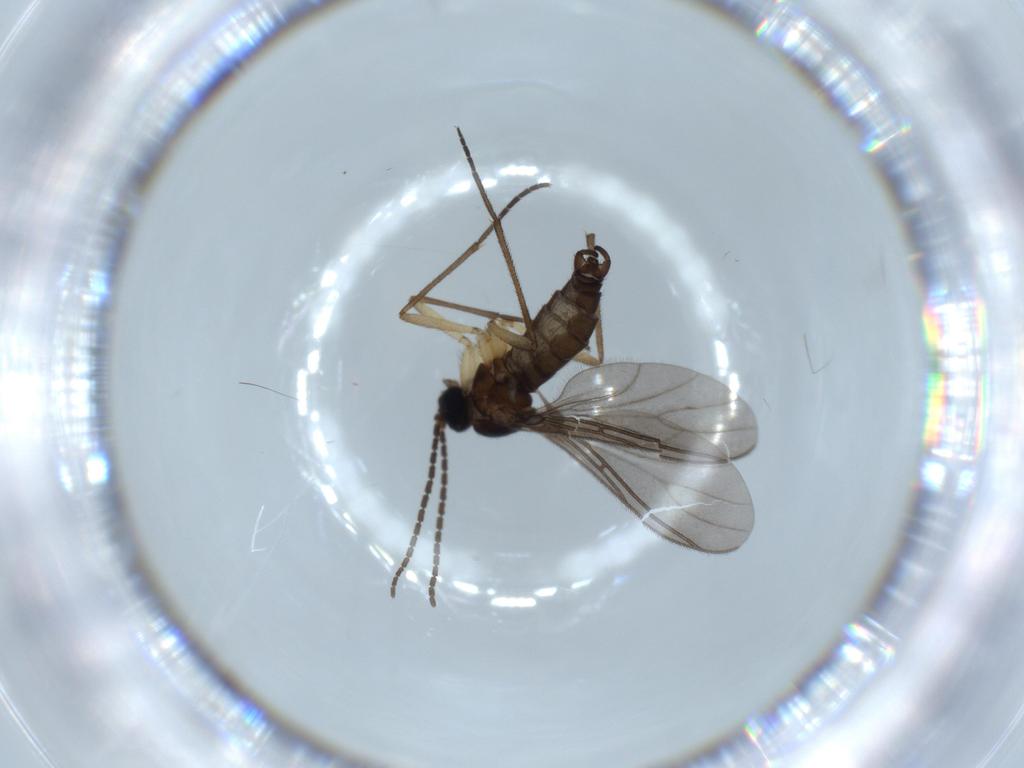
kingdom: Animalia
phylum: Arthropoda
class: Insecta
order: Diptera
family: Sciaridae
